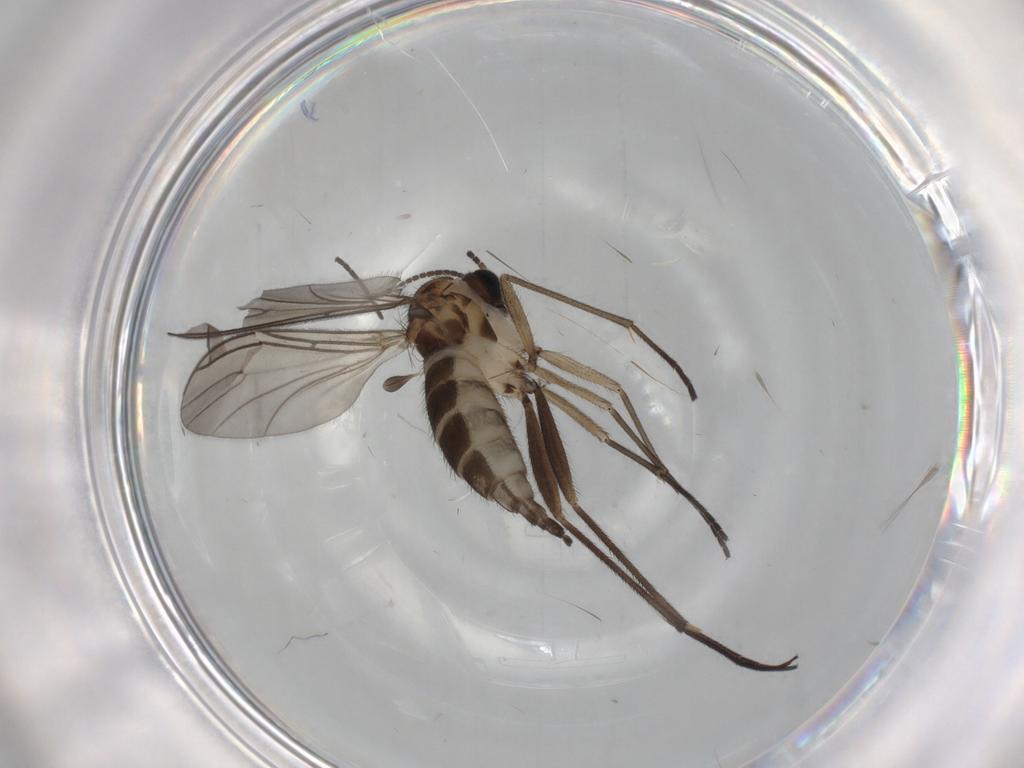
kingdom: Animalia
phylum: Arthropoda
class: Insecta
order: Diptera
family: Sciaridae
